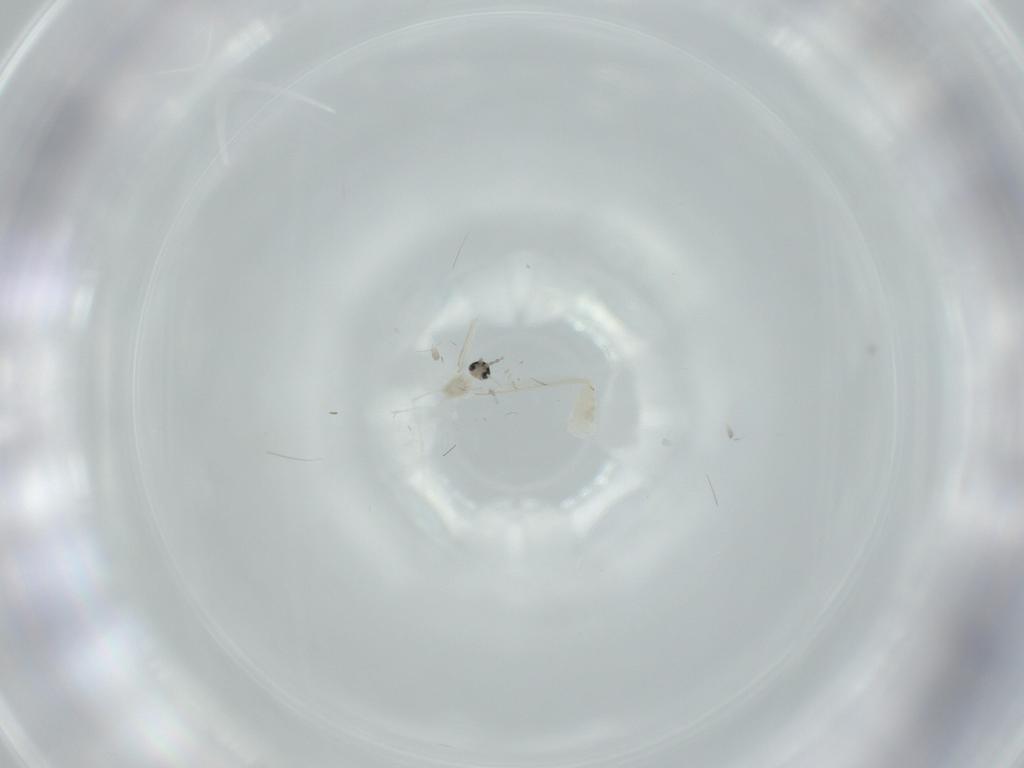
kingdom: Animalia
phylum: Arthropoda
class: Insecta
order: Diptera
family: Cecidomyiidae
